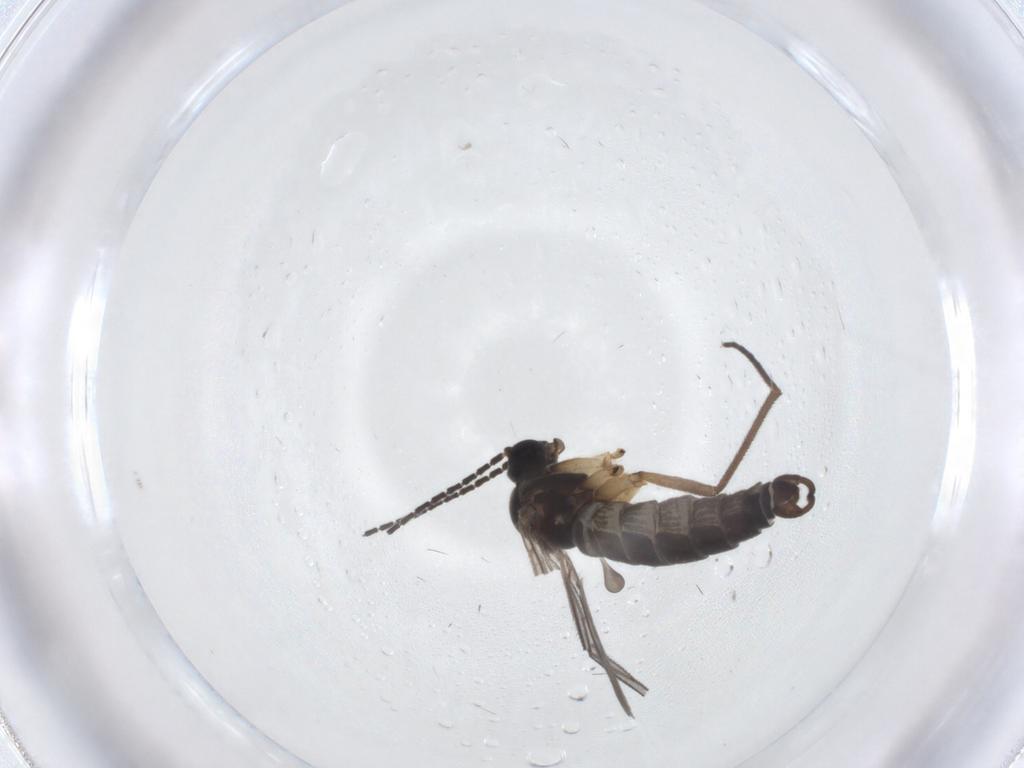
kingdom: Animalia
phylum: Arthropoda
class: Insecta
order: Diptera
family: Sciaridae
